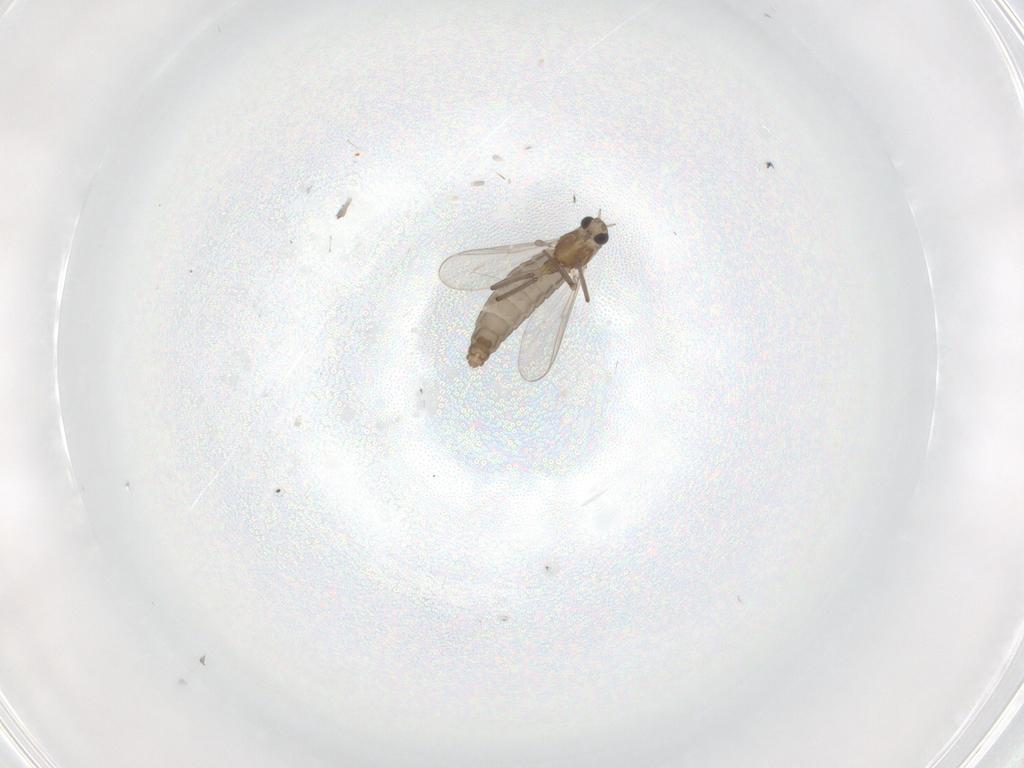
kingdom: Animalia
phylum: Arthropoda
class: Insecta
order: Diptera
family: Chironomidae
